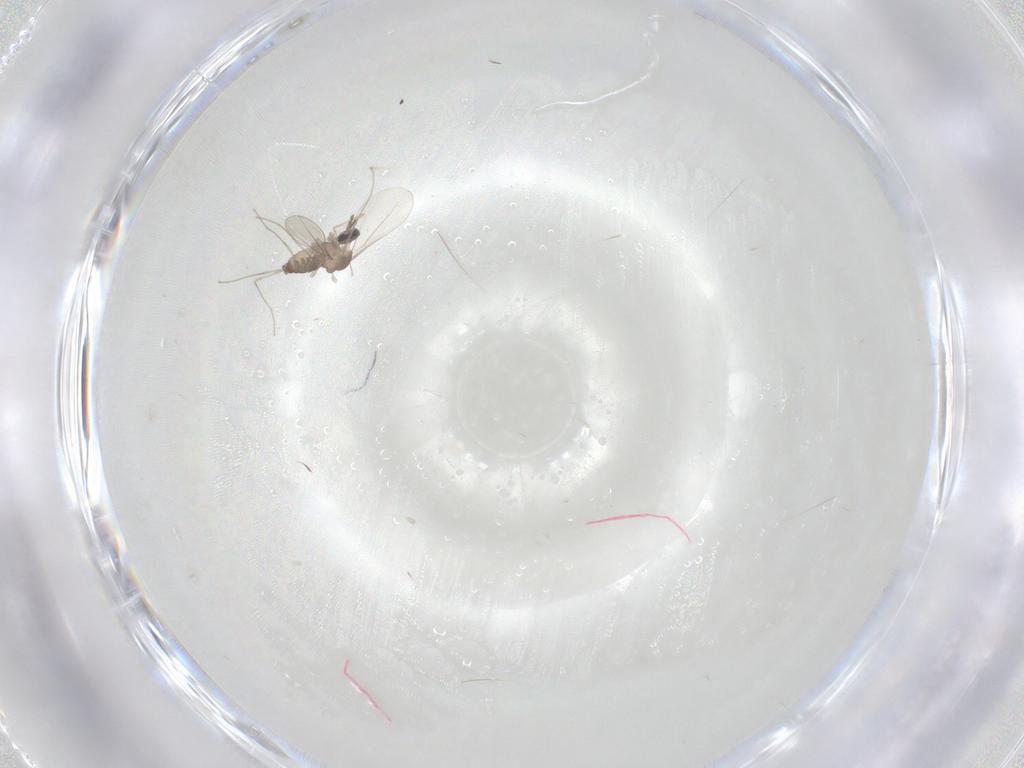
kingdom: Animalia
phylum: Arthropoda
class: Insecta
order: Diptera
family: Cecidomyiidae
